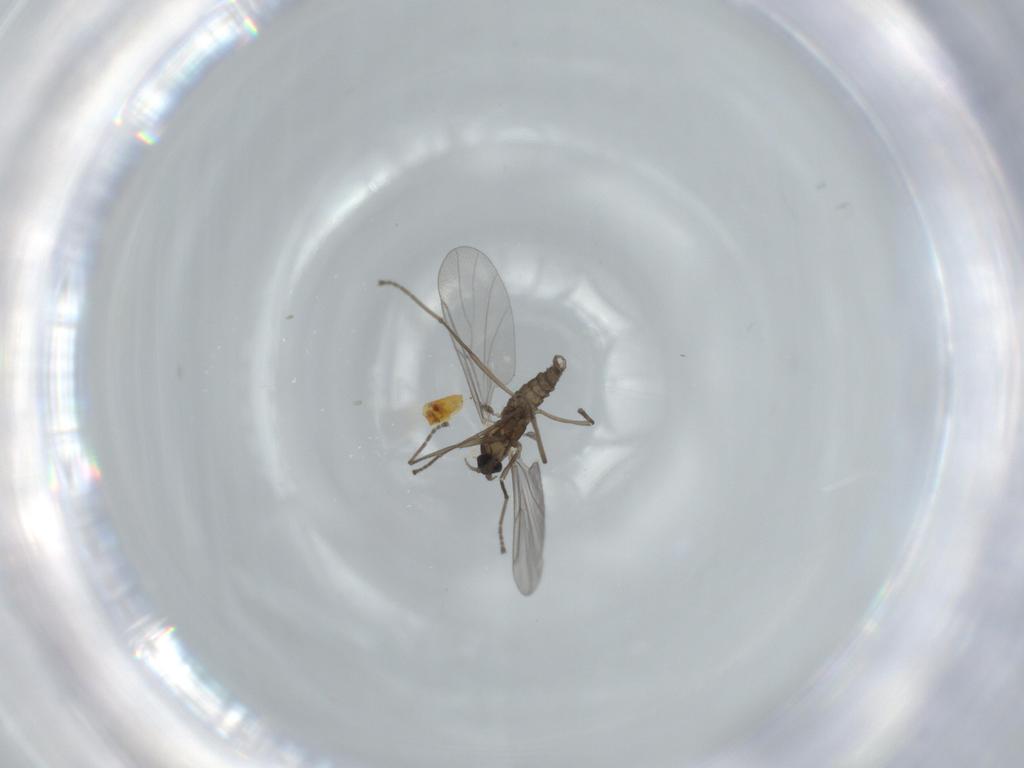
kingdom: Animalia
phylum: Arthropoda
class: Insecta
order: Diptera
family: Cecidomyiidae
